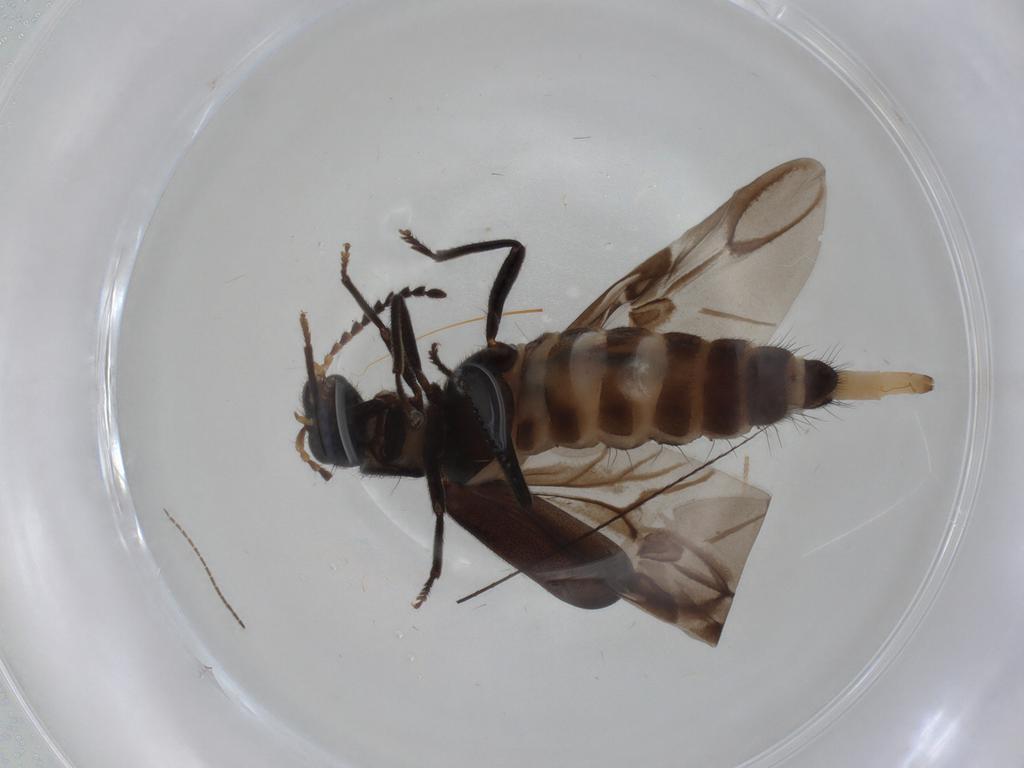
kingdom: Animalia
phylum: Arthropoda
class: Insecta
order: Coleoptera
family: Melyridae
